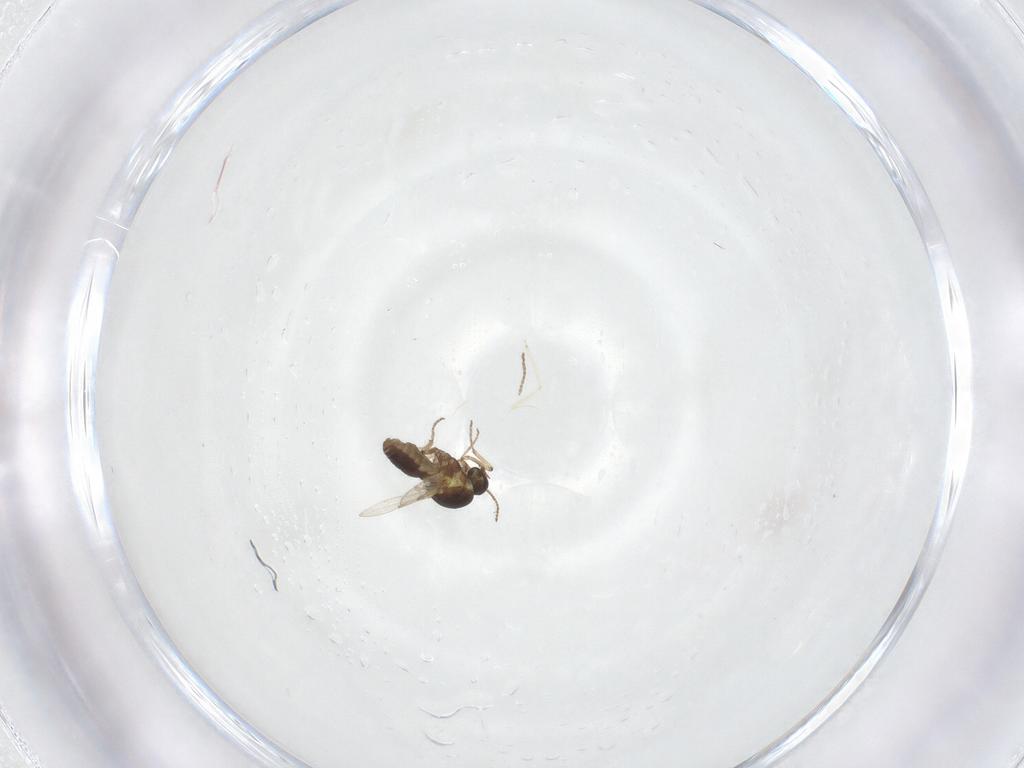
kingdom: Animalia
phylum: Arthropoda
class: Insecta
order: Diptera
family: Ceratopogonidae
